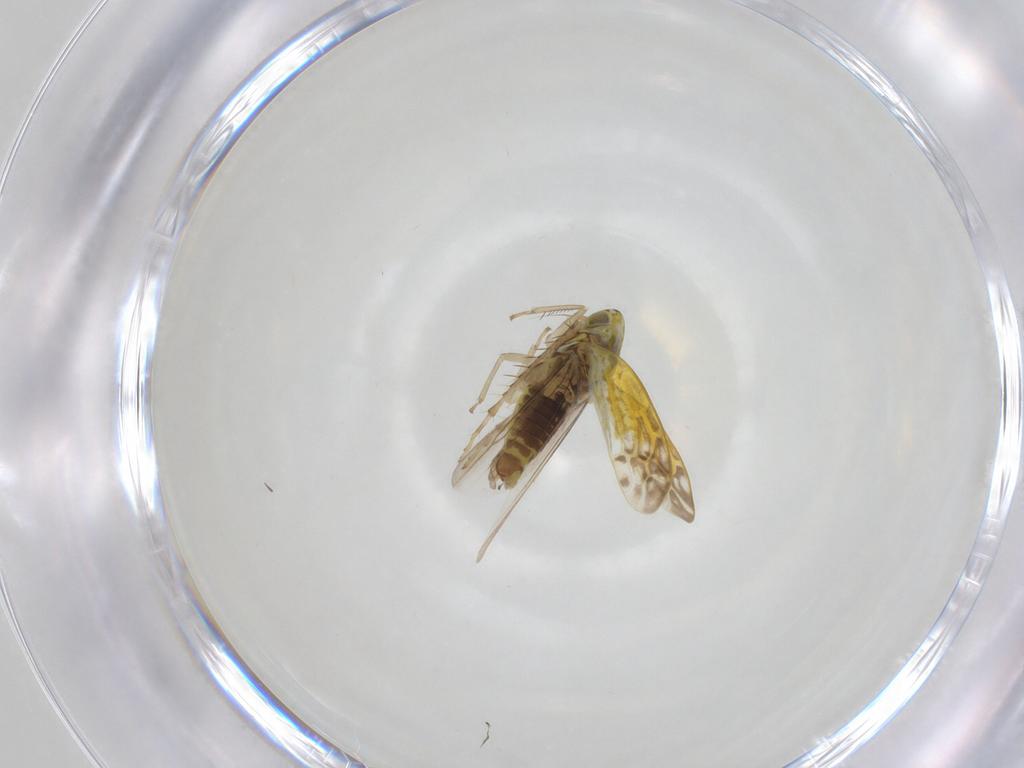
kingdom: Animalia
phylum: Arthropoda
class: Insecta
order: Hemiptera
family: Cicadellidae
